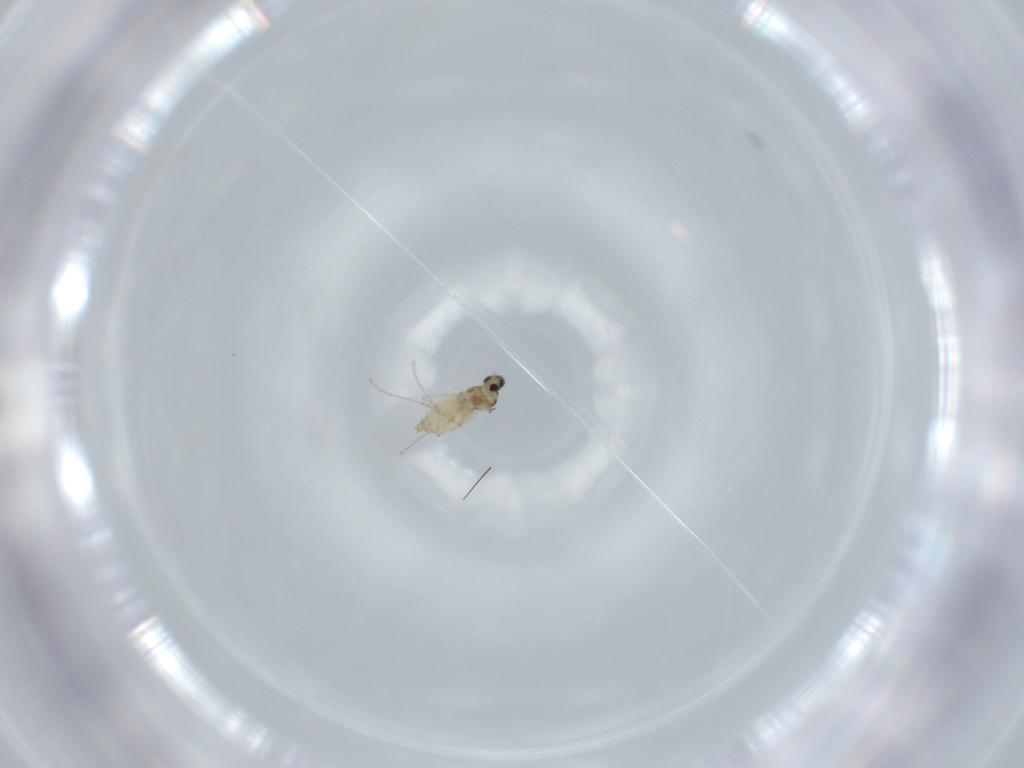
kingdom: Animalia
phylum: Arthropoda
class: Insecta
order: Diptera
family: Cecidomyiidae
